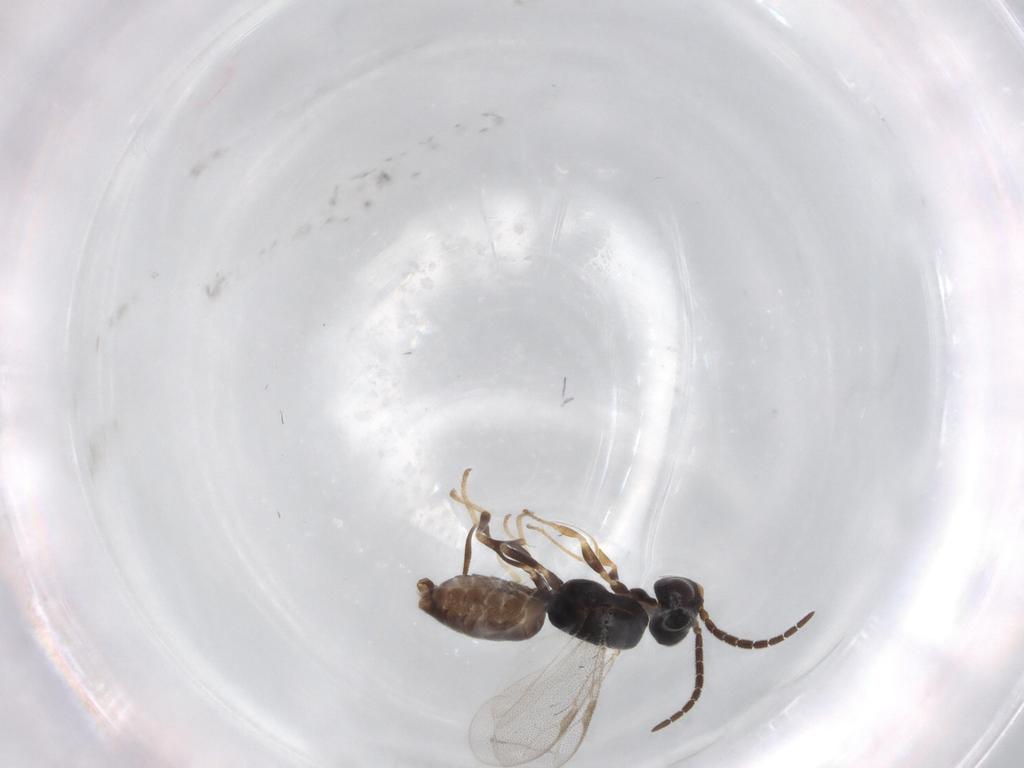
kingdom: Animalia
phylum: Arthropoda
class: Insecta
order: Hymenoptera
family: Dryinidae
